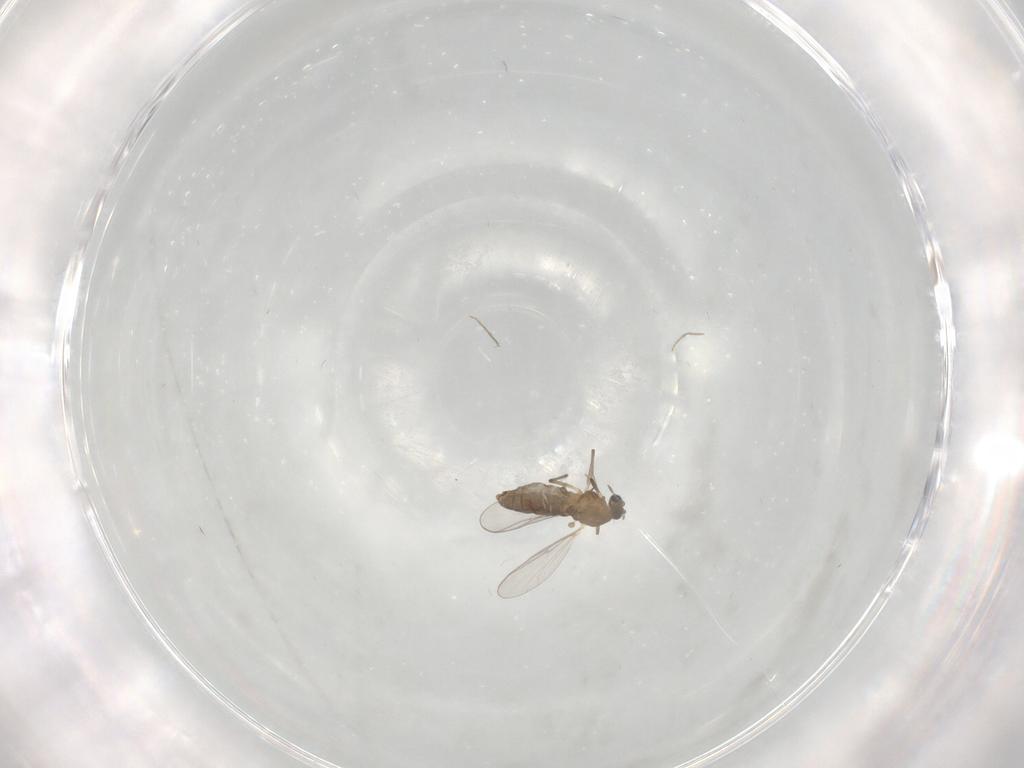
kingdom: Animalia
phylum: Arthropoda
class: Insecta
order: Diptera
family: Chironomidae
